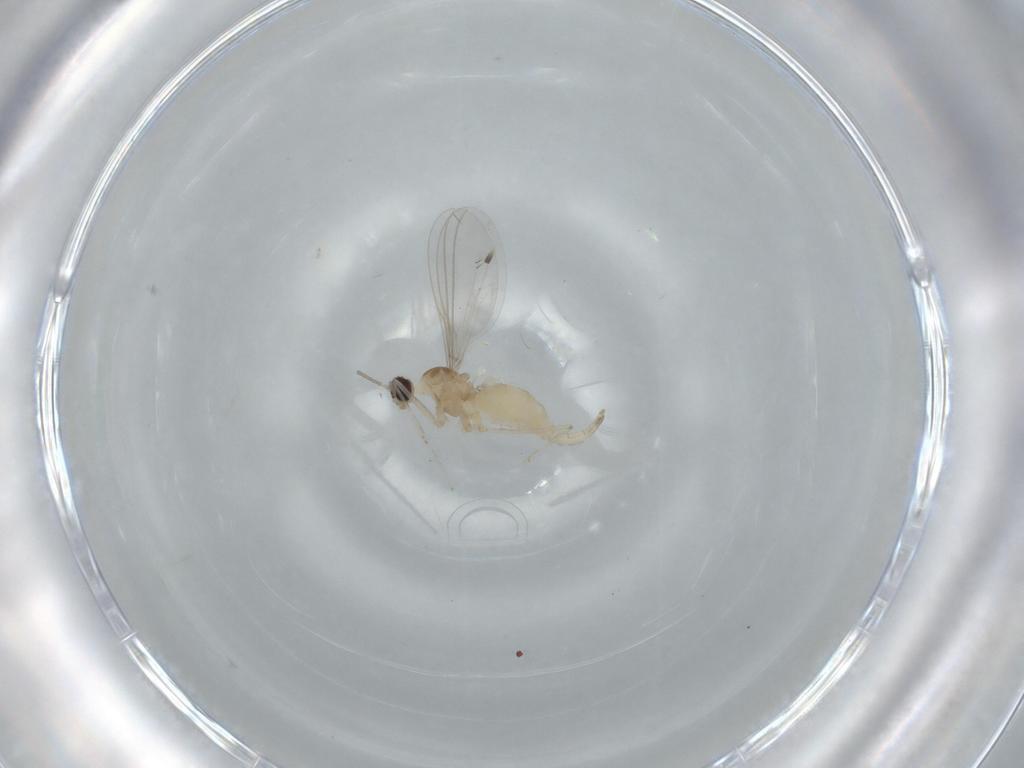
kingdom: Animalia
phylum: Arthropoda
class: Insecta
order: Diptera
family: Cecidomyiidae
